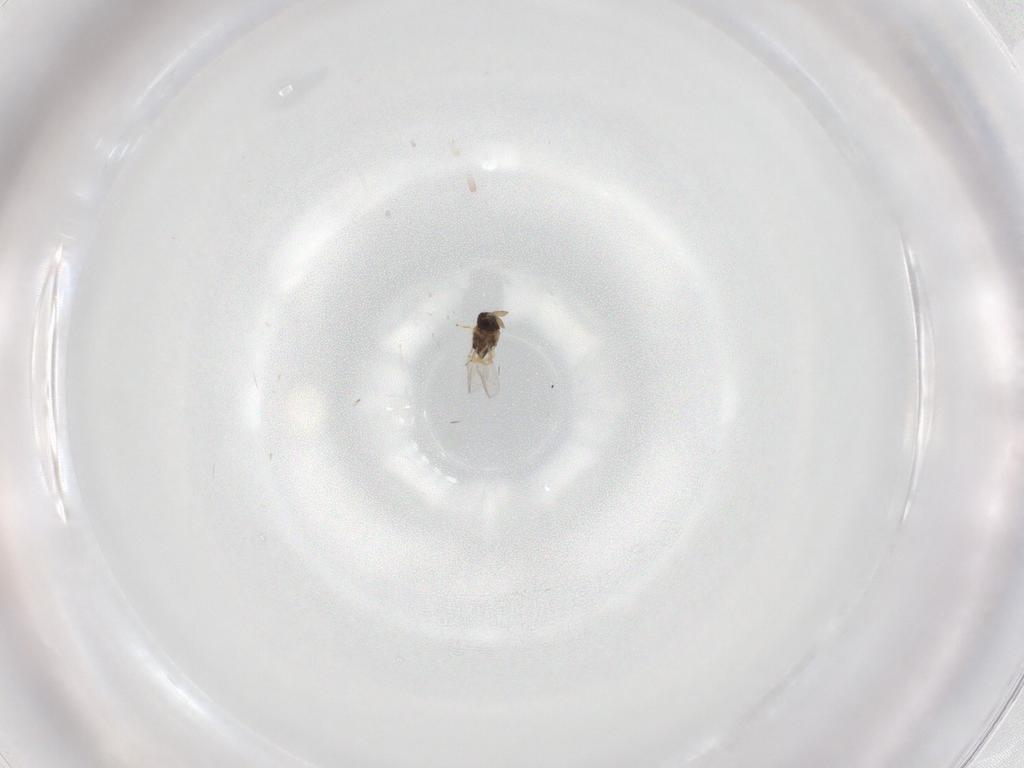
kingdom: Animalia
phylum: Arthropoda
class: Insecta
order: Hymenoptera
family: Encyrtidae
